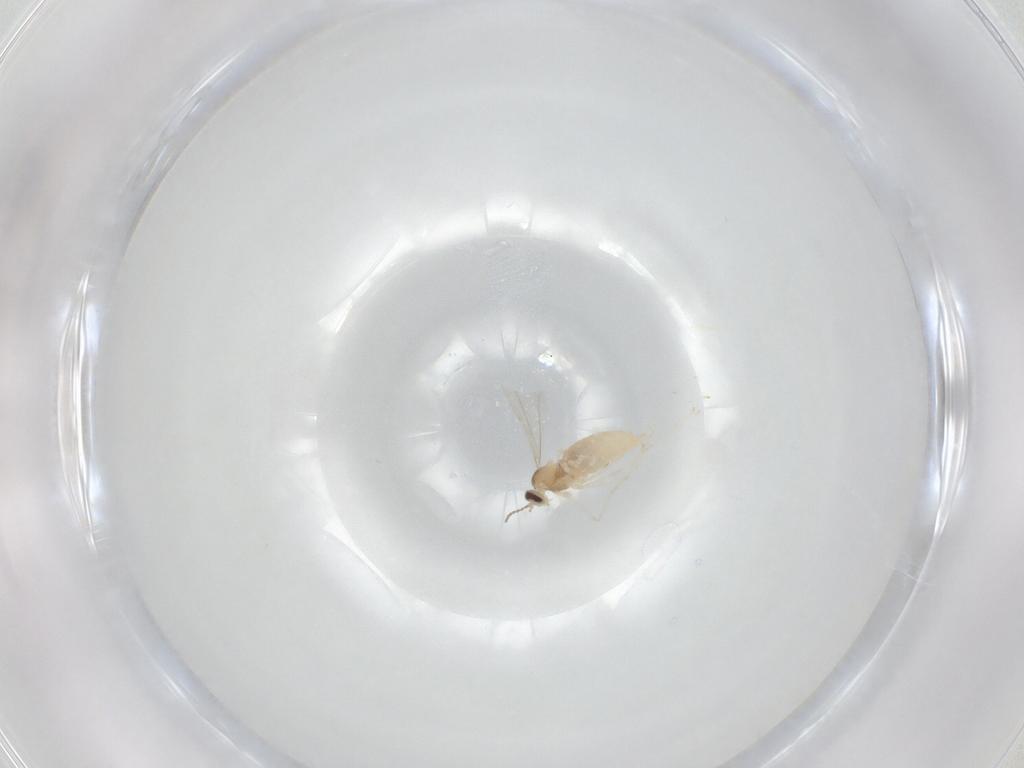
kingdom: Animalia
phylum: Arthropoda
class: Insecta
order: Diptera
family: Cecidomyiidae
